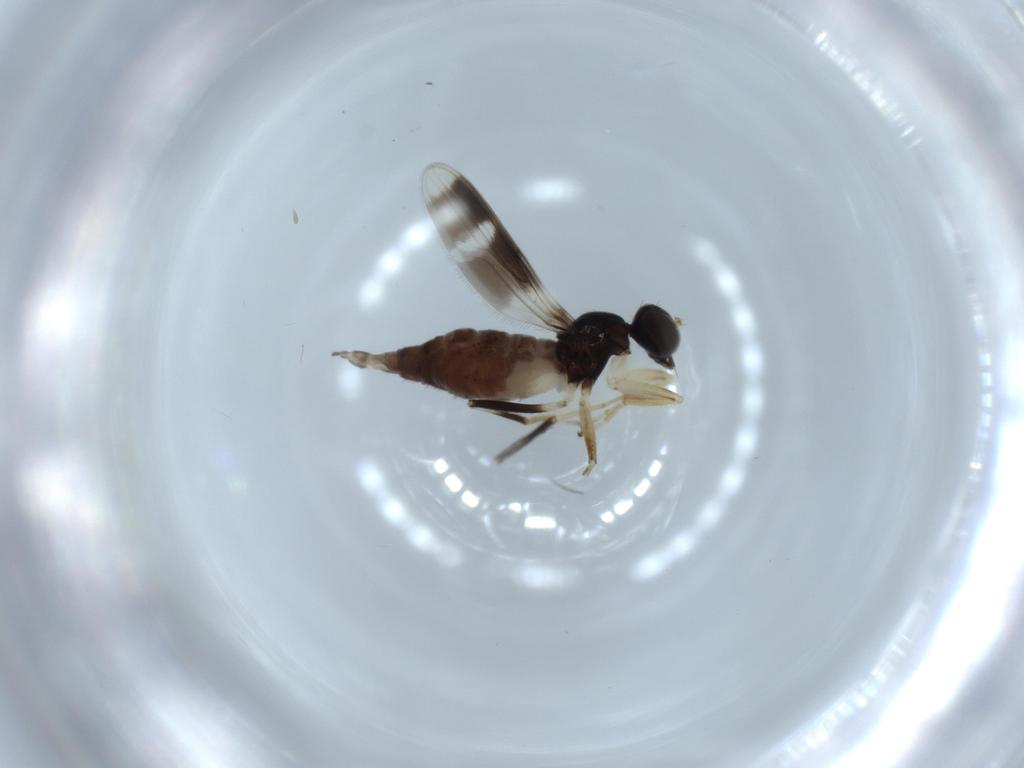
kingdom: Animalia
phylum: Arthropoda
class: Insecta
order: Diptera
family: Hybotidae
